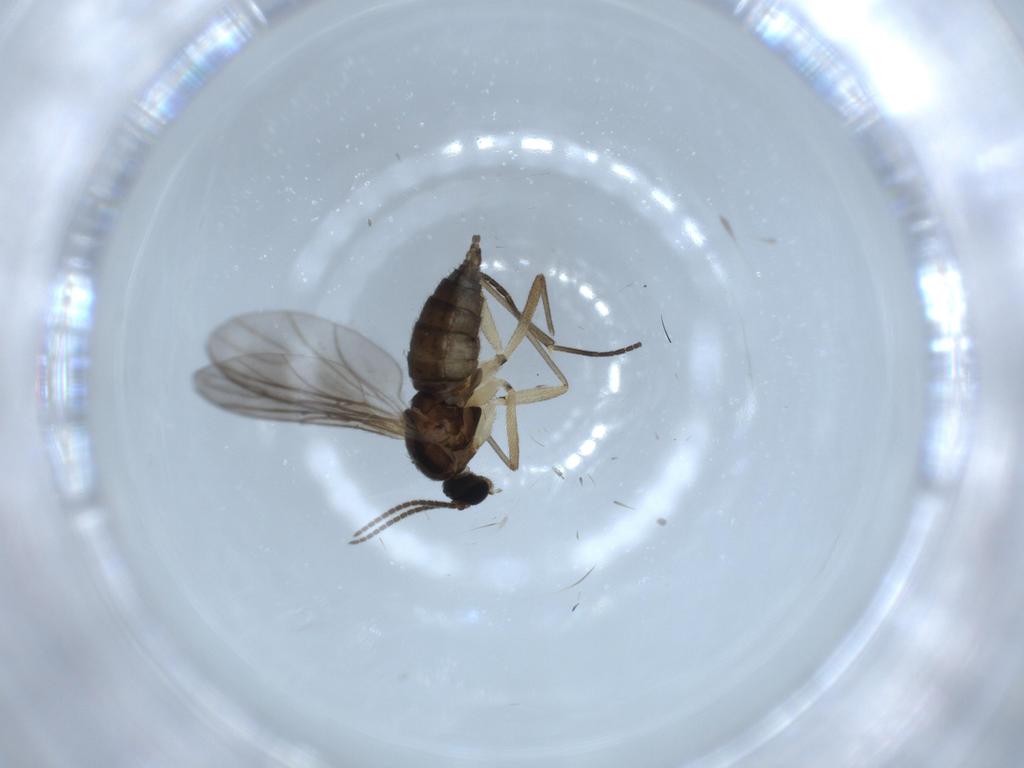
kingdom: Animalia
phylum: Arthropoda
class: Insecta
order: Diptera
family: Sciaridae
